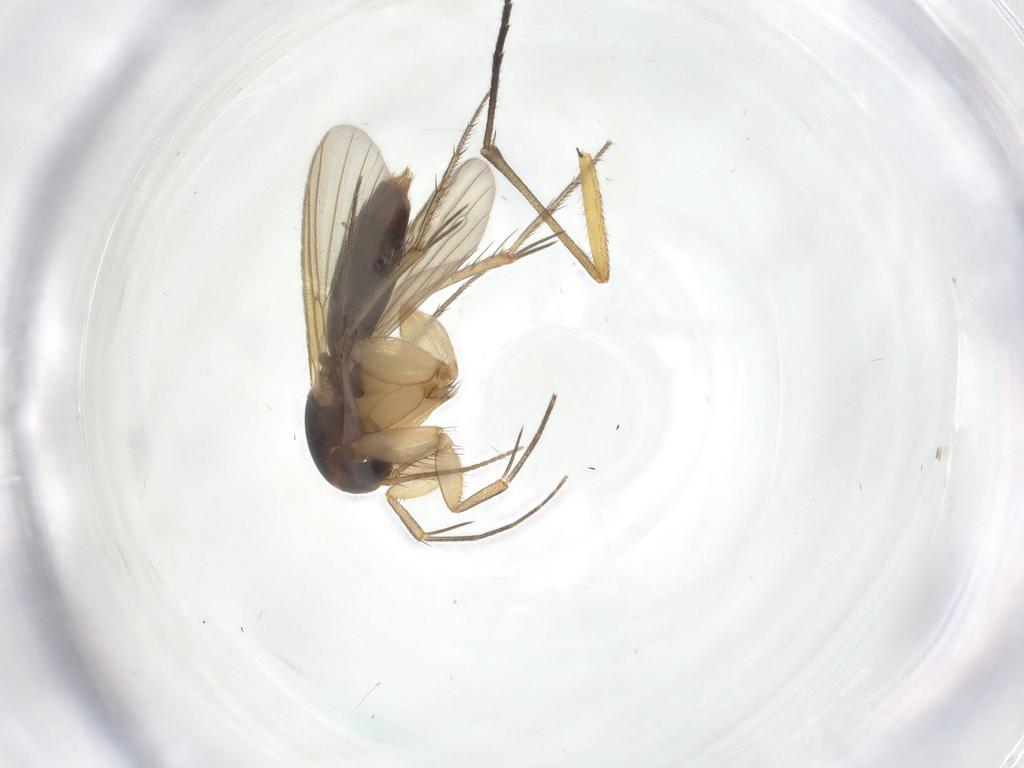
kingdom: Animalia
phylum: Arthropoda
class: Insecta
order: Diptera
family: Mycetophilidae
